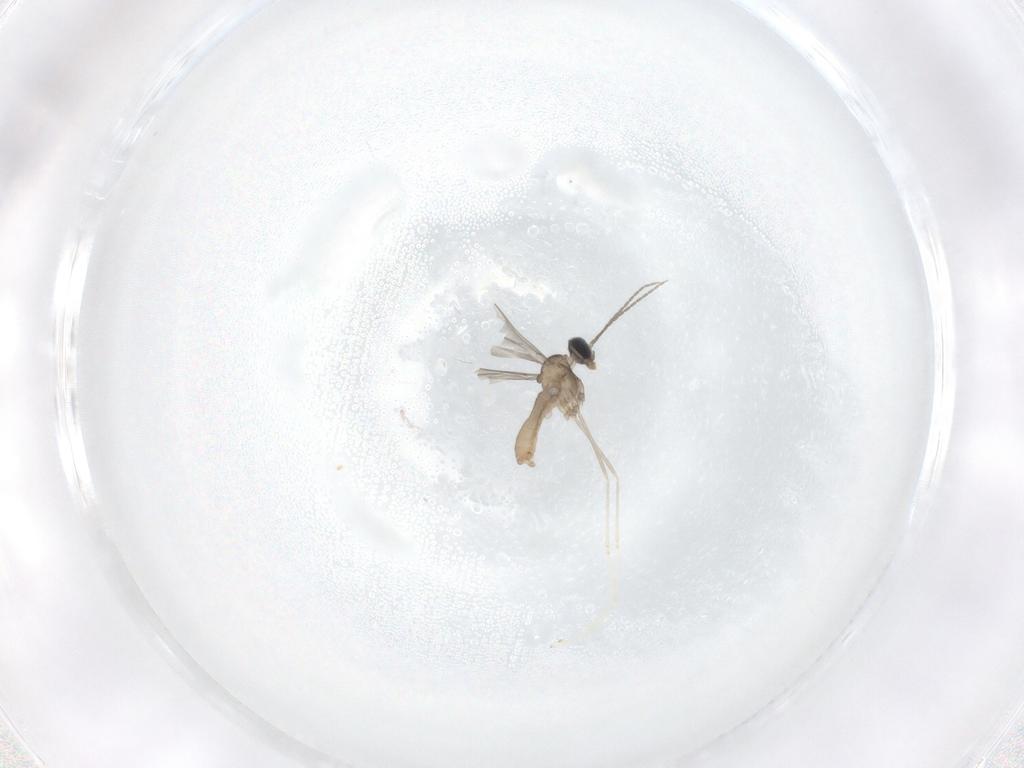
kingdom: Animalia
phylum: Arthropoda
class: Insecta
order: Diptera
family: Cecidomyiidae
